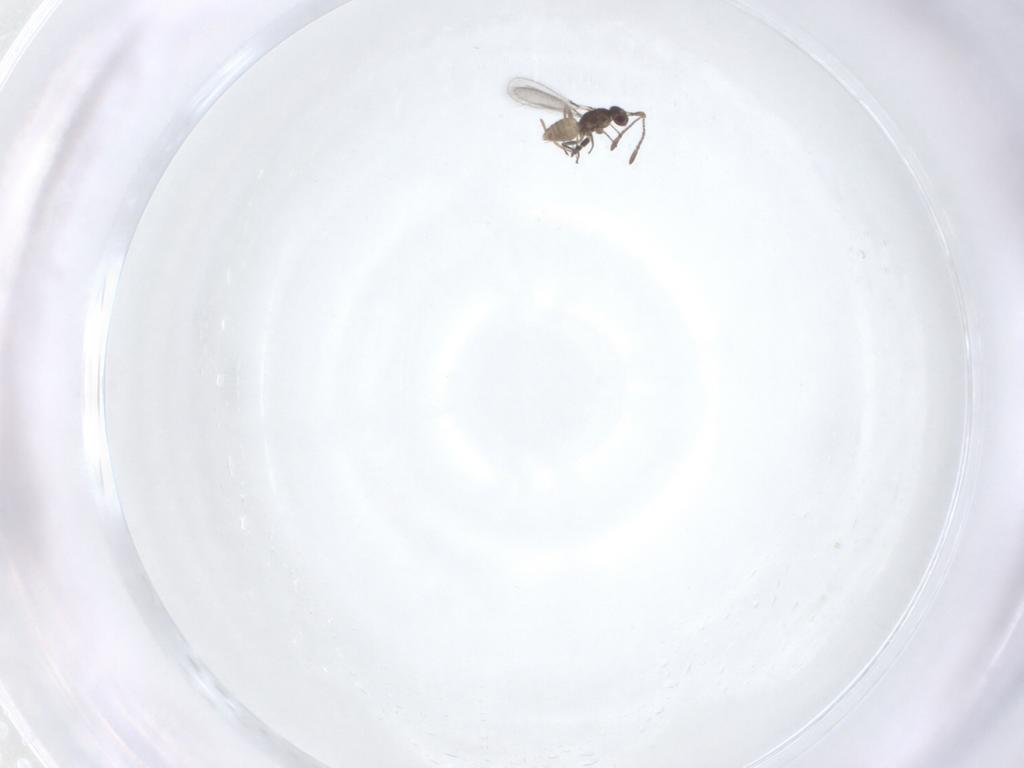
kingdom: Animalia
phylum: Arthropoda
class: Insecta
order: Hymenoptera
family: Mymaridae
